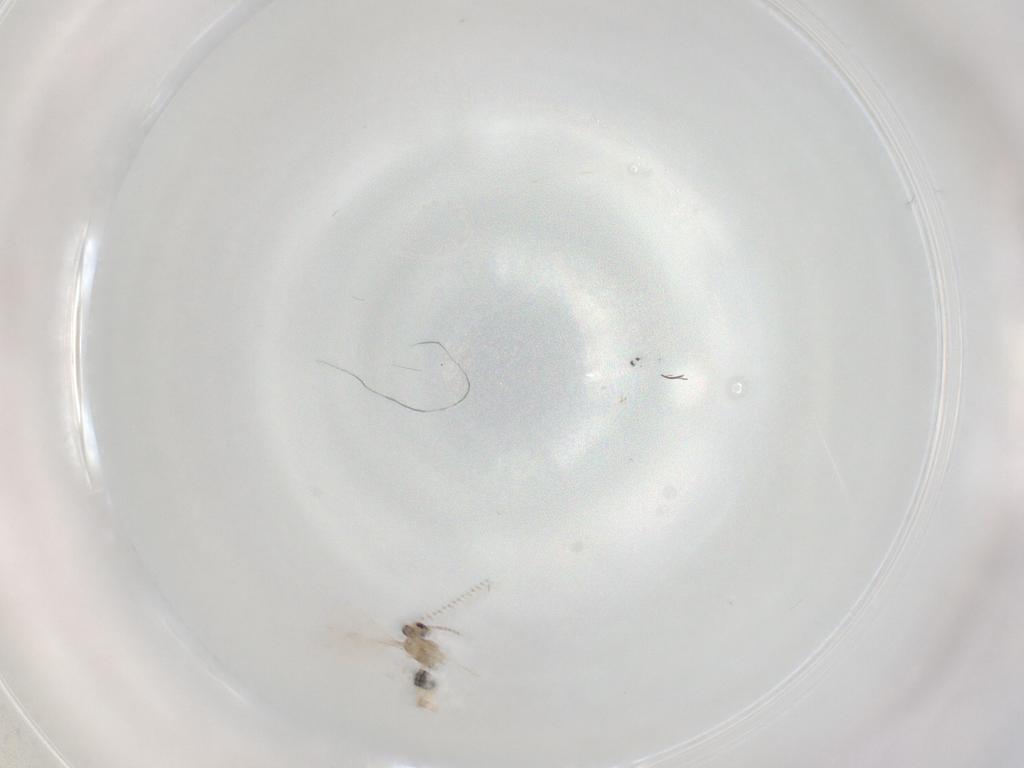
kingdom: Animalia
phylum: Arthropoda
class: Insecta
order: Diptera
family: Cecidomyiidae
